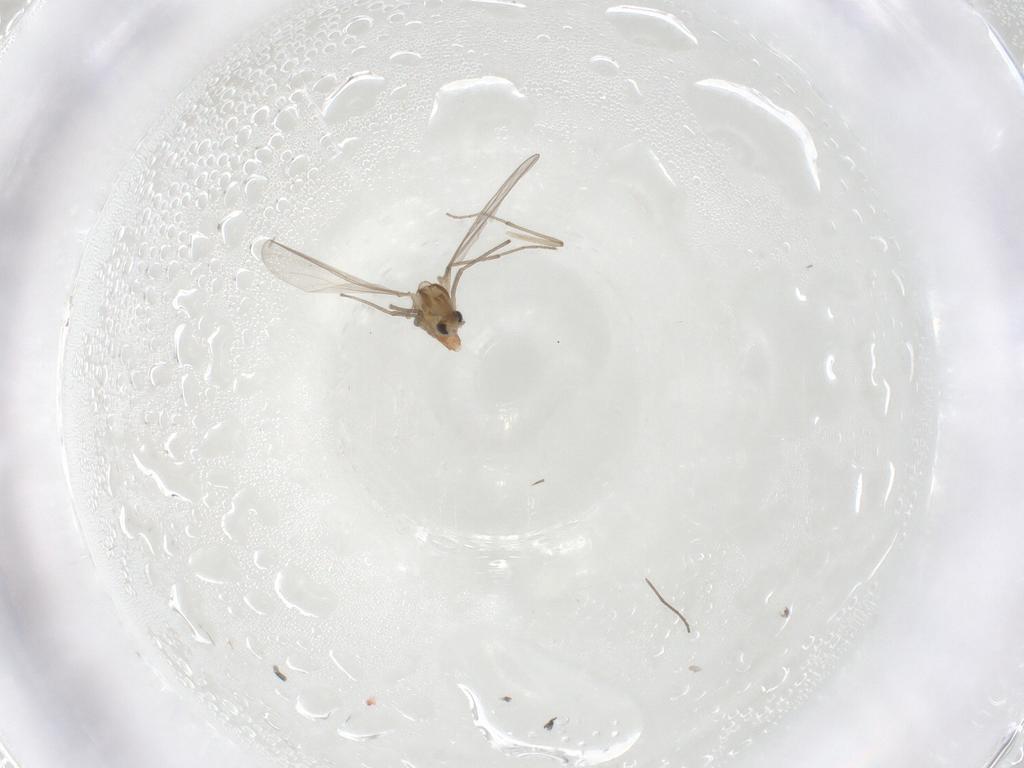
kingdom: Animalia
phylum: Arthropoda
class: Insecta
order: Diptera
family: Chironomidae
